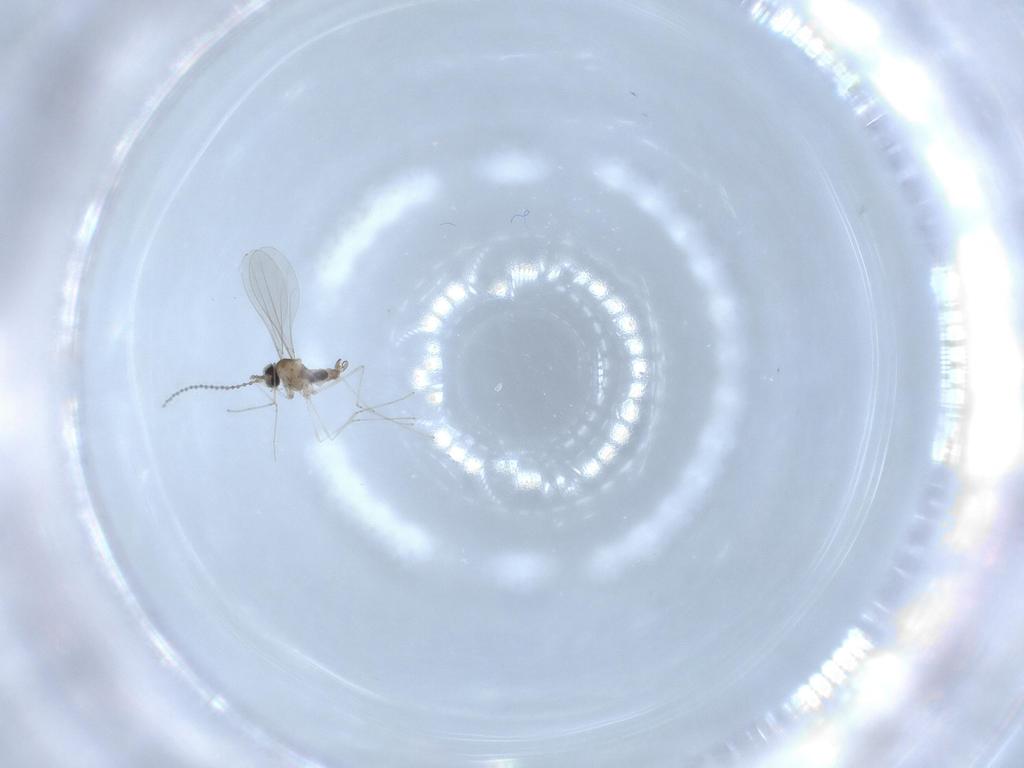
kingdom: Animalia
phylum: Arthropoda
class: Insecta
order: Diptera
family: Cecidomyiidae
